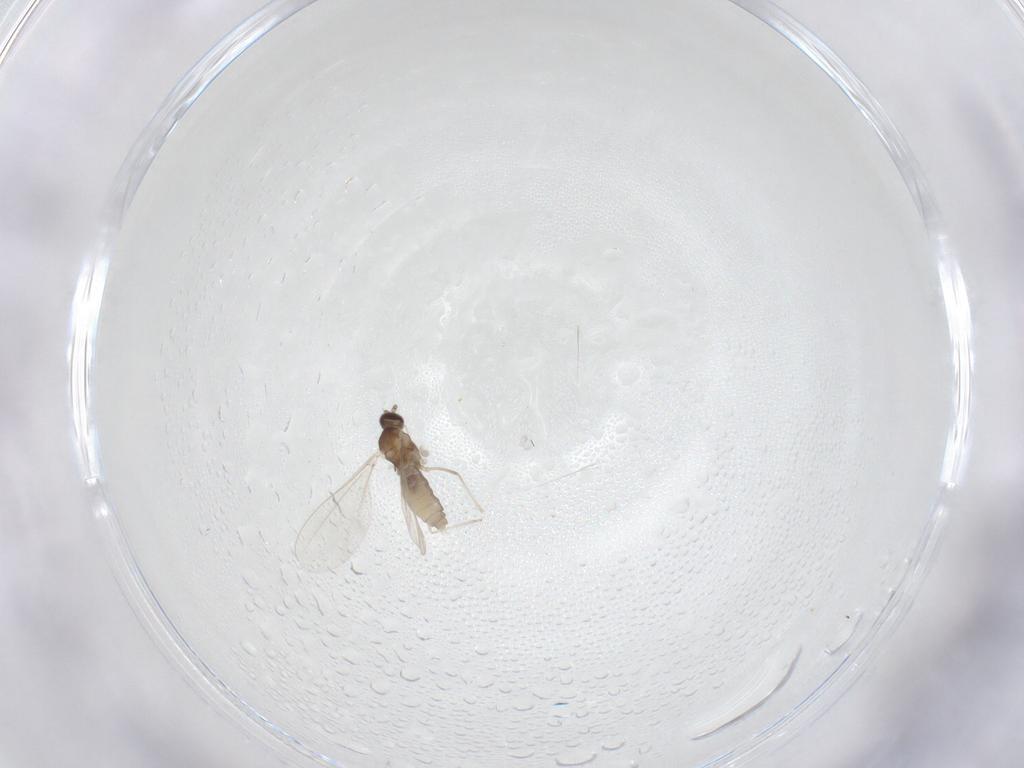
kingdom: Animalia
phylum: Arthropoda
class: Insecta
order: Diptera
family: Cecidomyiidae
